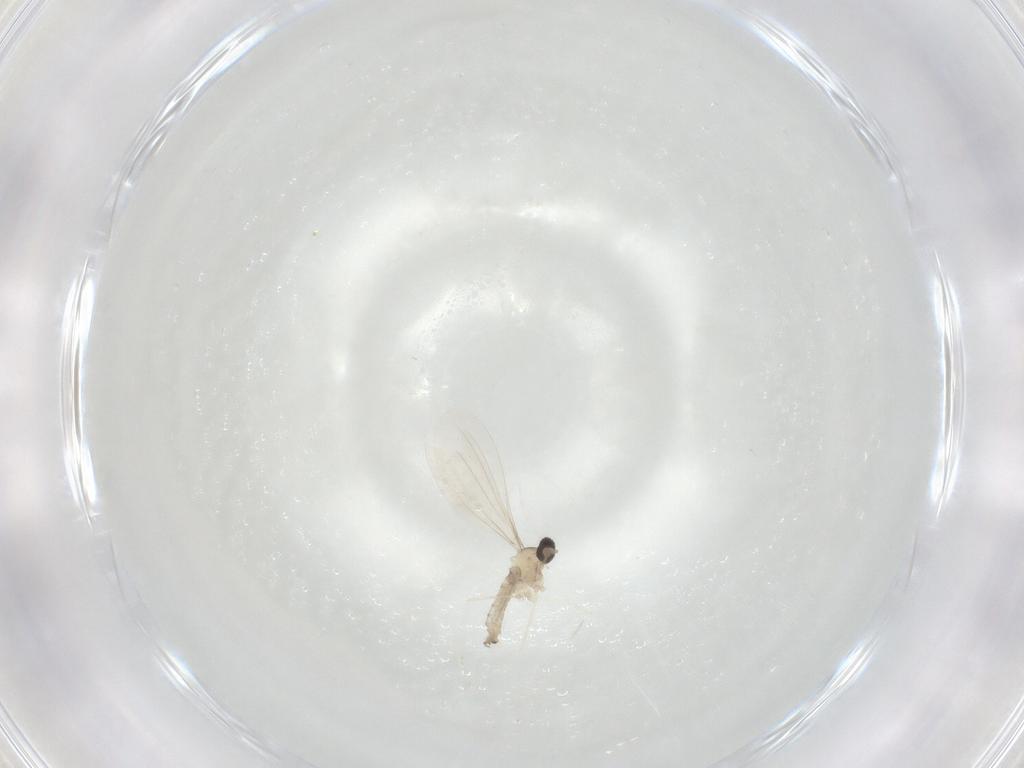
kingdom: Animalia
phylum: Arthropoda
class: Insecta
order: Diptera
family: Cecidomyiidae
